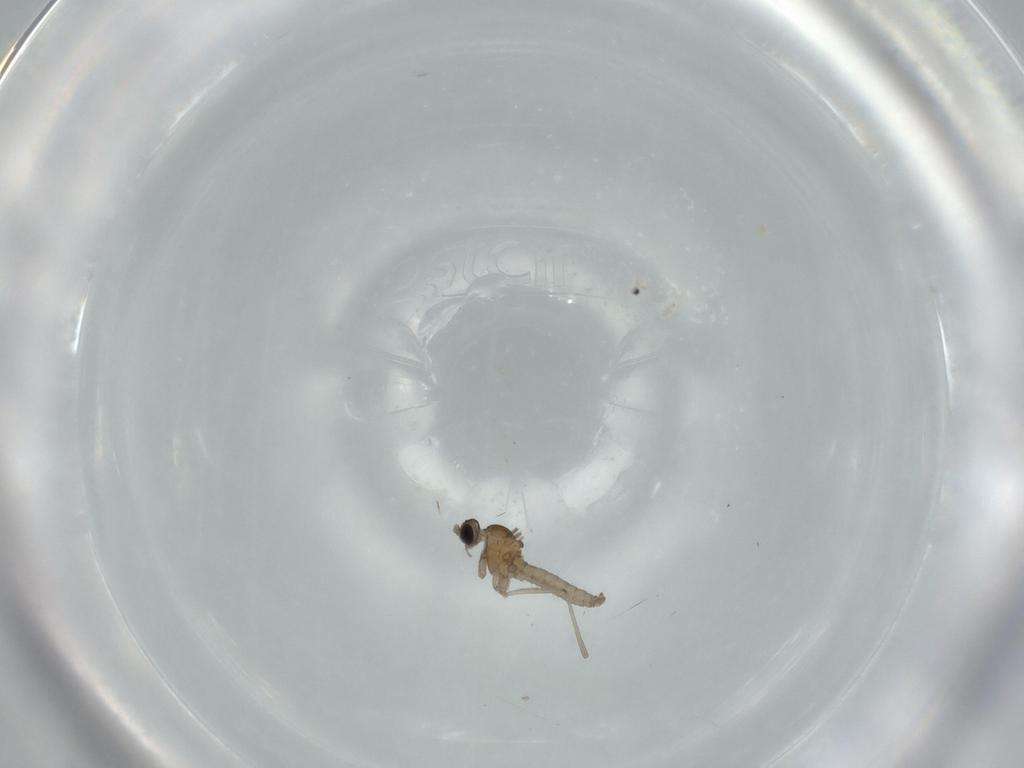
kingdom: Animalia
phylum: Arthropoda
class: Insecta
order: Diptera
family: Cecidomyiidae
